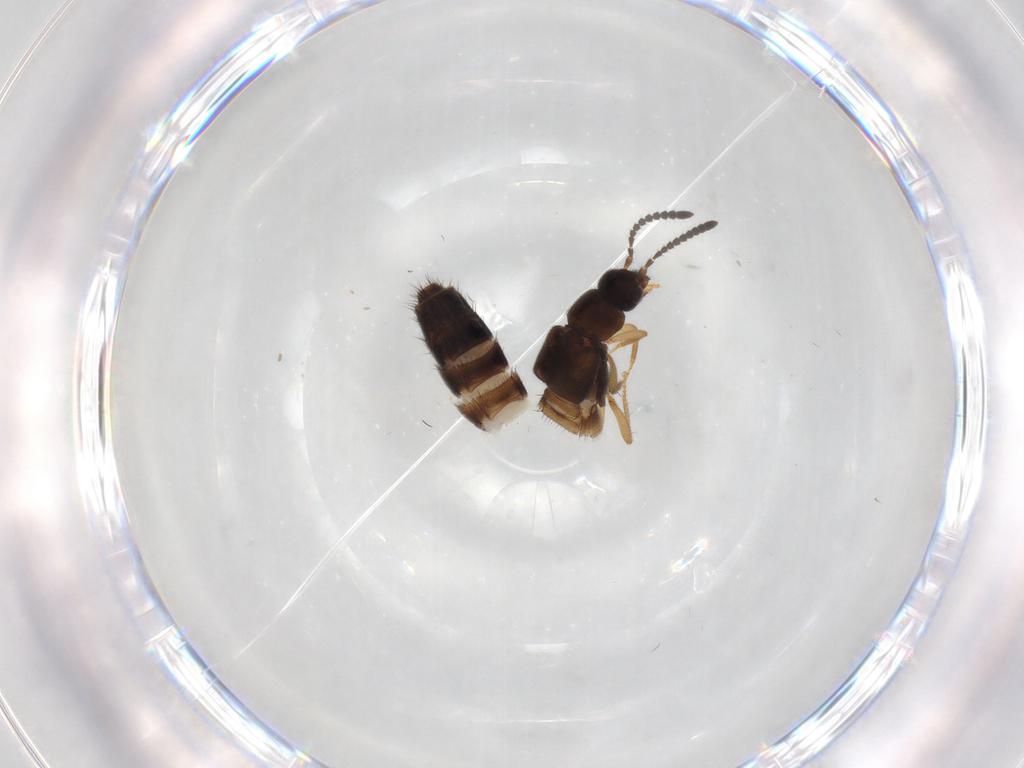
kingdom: Animalia
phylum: Arthropoda
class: Insecta
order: Coleoptera
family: Staphylinidae
